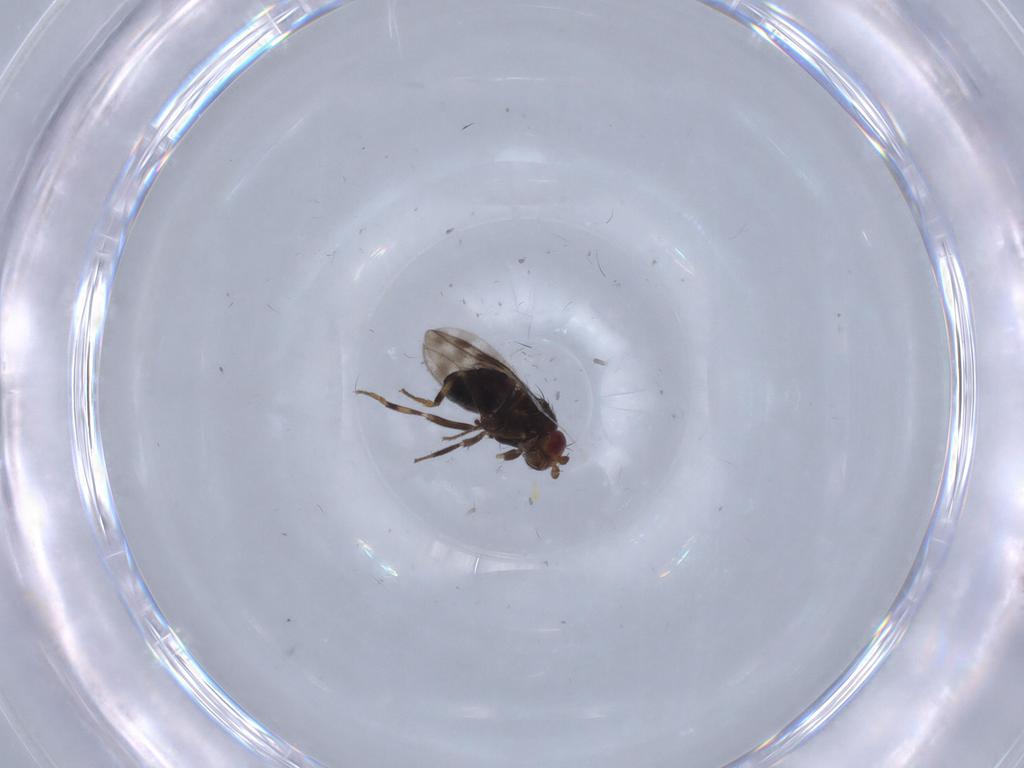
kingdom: Animalia
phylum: Arthropoda
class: Insecta
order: Diptera
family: Sphaeroceridae
